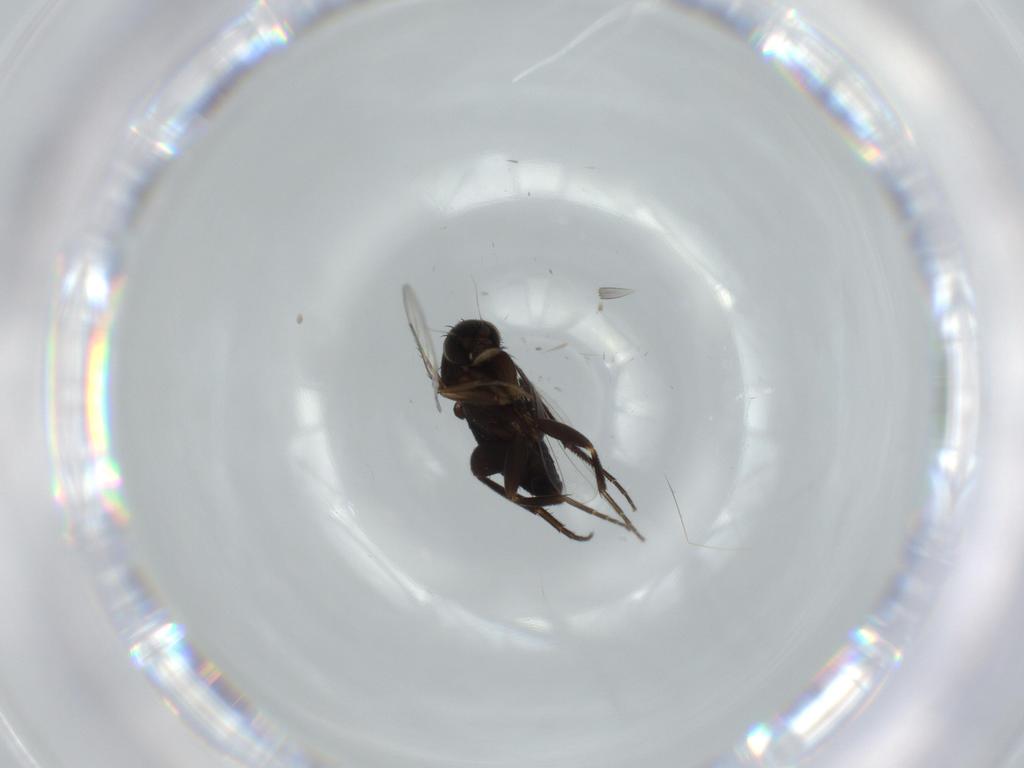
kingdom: Animalia
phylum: Arthropoda
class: Insecta
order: Diptera
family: Phoridae
